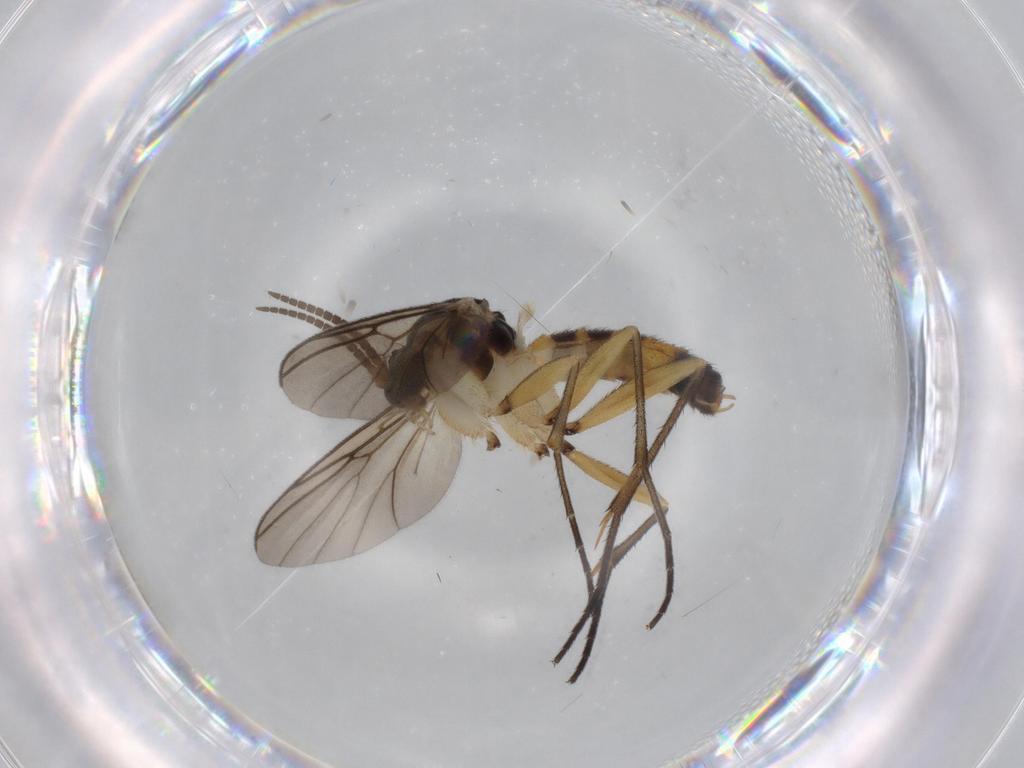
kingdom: Animalia
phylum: Arthropoda
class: Insecta
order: Diptera
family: Mycetophilidae
